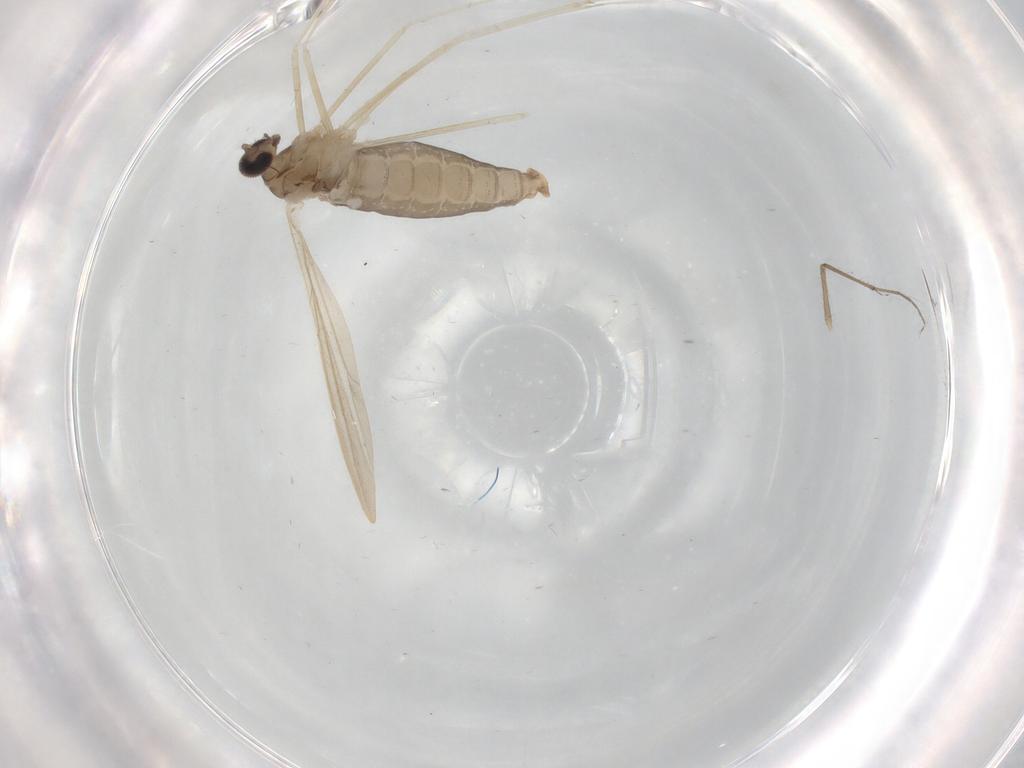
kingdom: Animalia
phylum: Arthropoda
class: Insecta
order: Diptera
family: Cecidomyiidae
